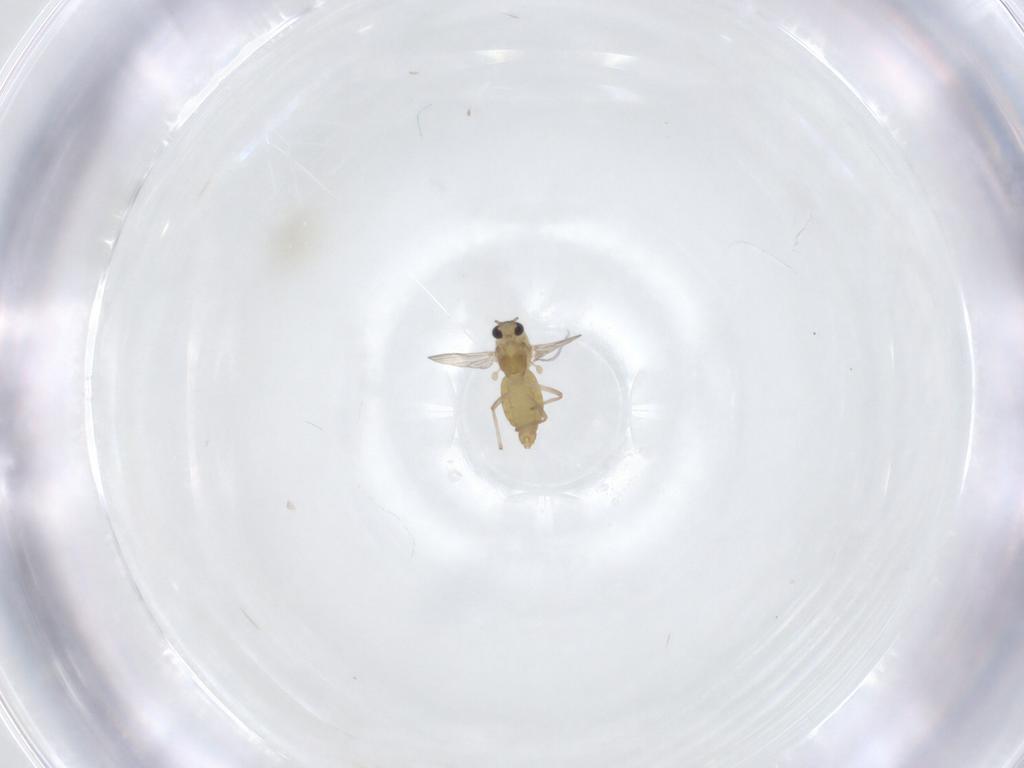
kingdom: Animalia
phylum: Arthropoda
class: Insecta
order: Diptera
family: Chironomidae
